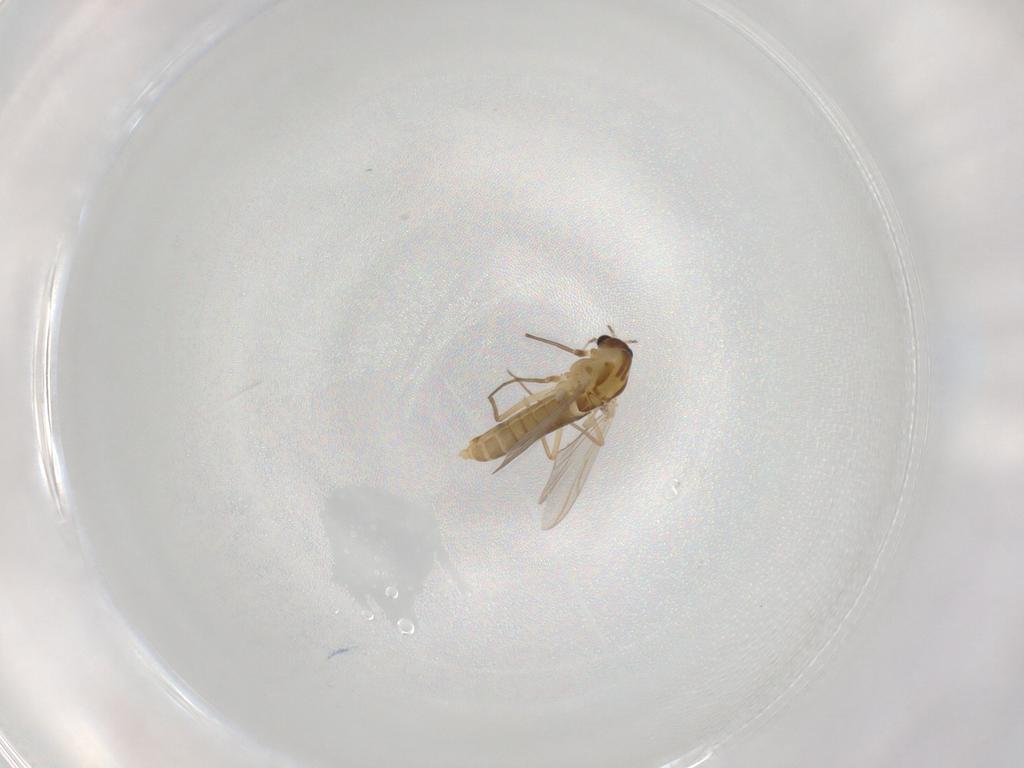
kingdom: Animalia
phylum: Arthropoda
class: Insecta
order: Diptera
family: Chironomidae
